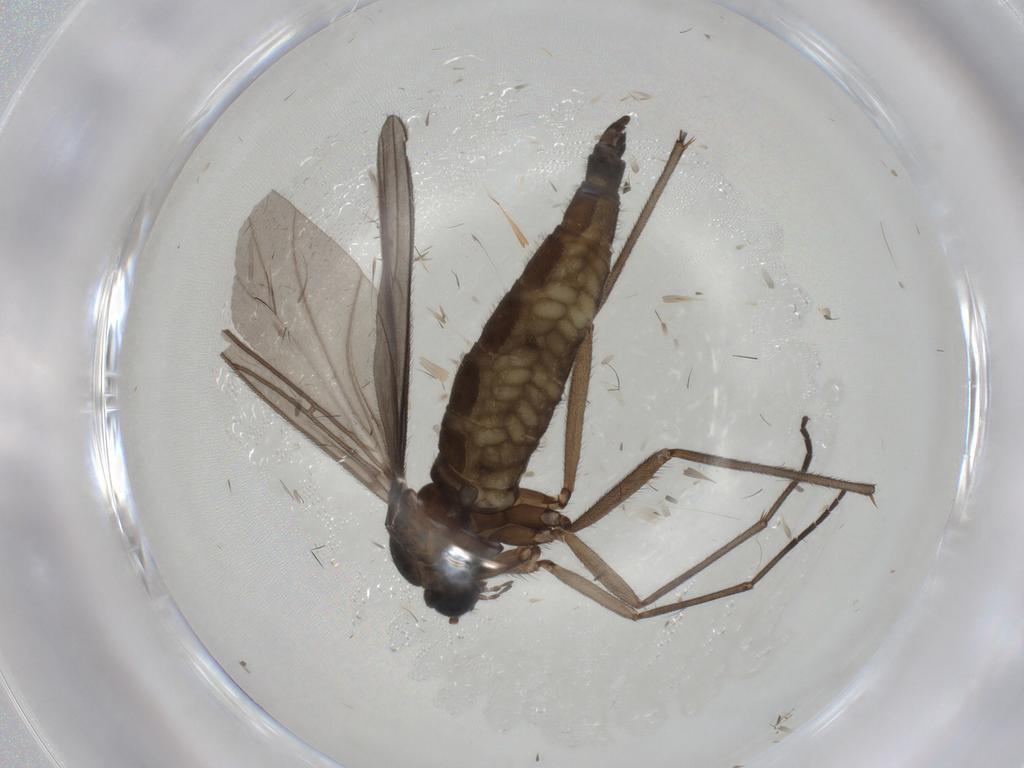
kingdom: Animalia
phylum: Arthropoda
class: Insecta
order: Diptera
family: Sciaridae
